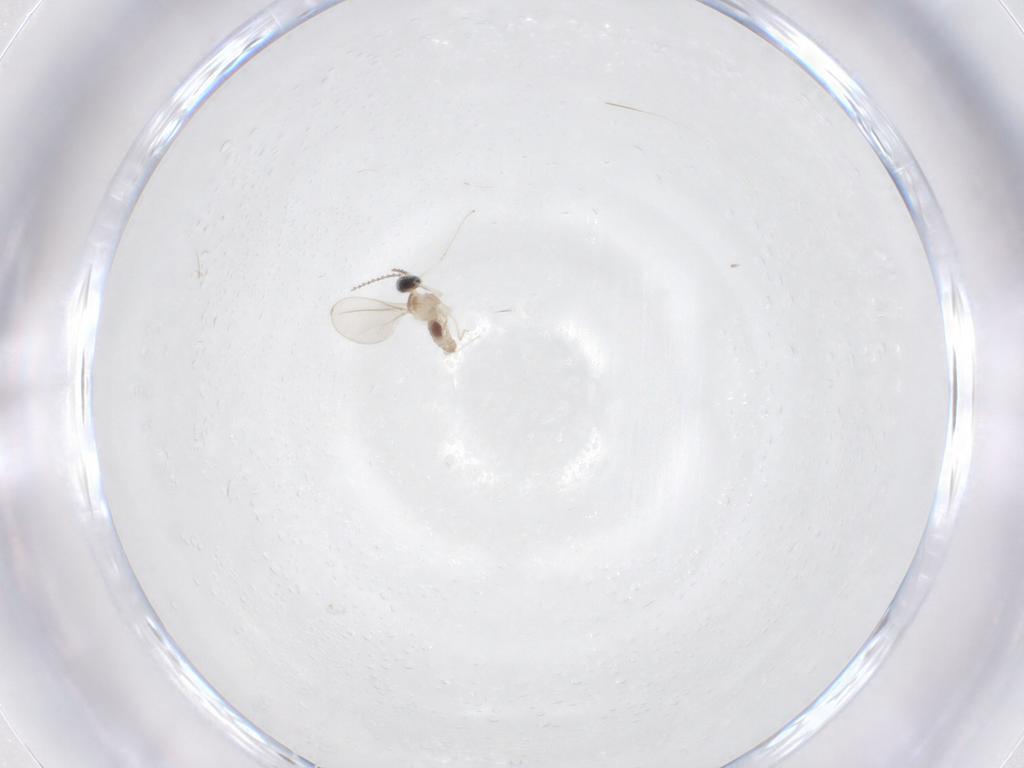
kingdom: Animalia
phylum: Arthropoda
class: Insecta
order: Diptera
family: Cecidomyiidae
